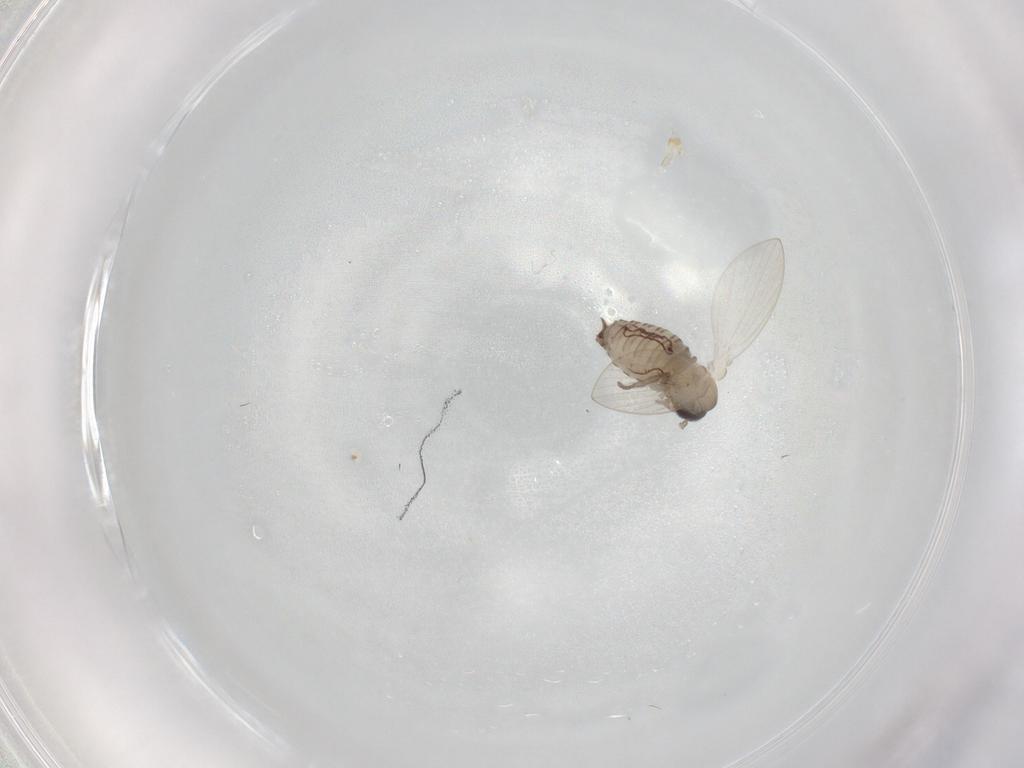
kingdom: Animalia
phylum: Arthropoda
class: Insecta
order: Diptera
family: Tabanidae
